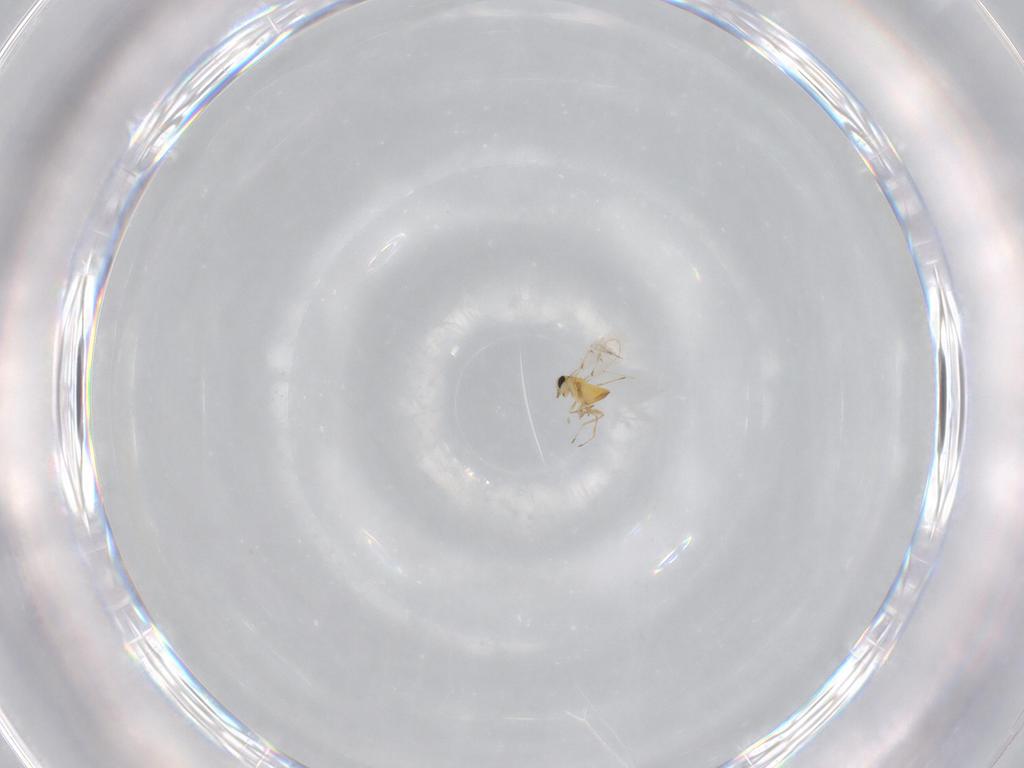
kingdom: Animalia
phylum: Arthropoda
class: Insecta
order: Hymenoptera
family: Trichogrammatidae
